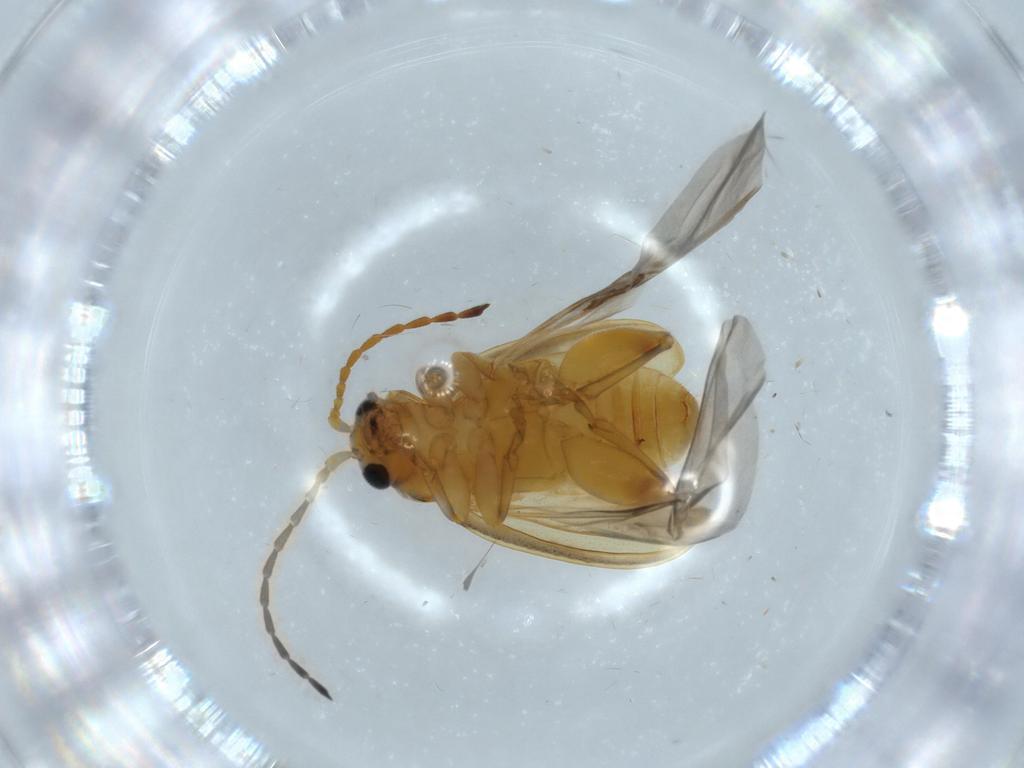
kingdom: Animalia
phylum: Arthropoda
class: Insecta
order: Coleoptera
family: Chrysomelidae
